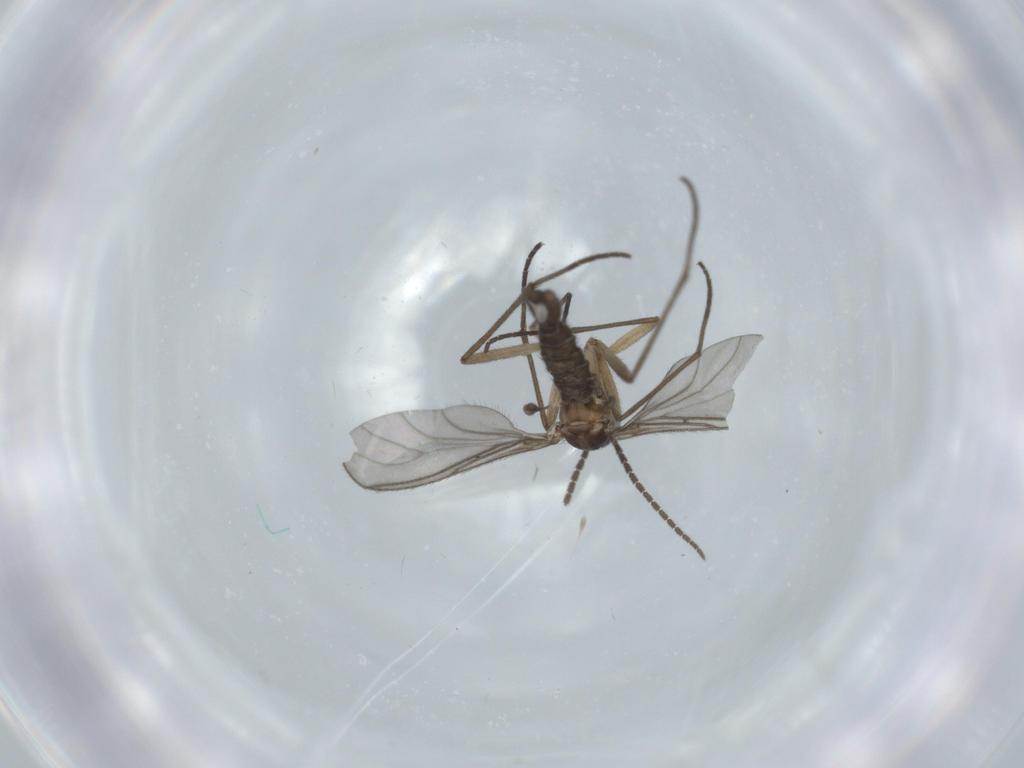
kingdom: Animalia
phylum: Arthropoda
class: Insecta
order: Diptera
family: Sciaridae
